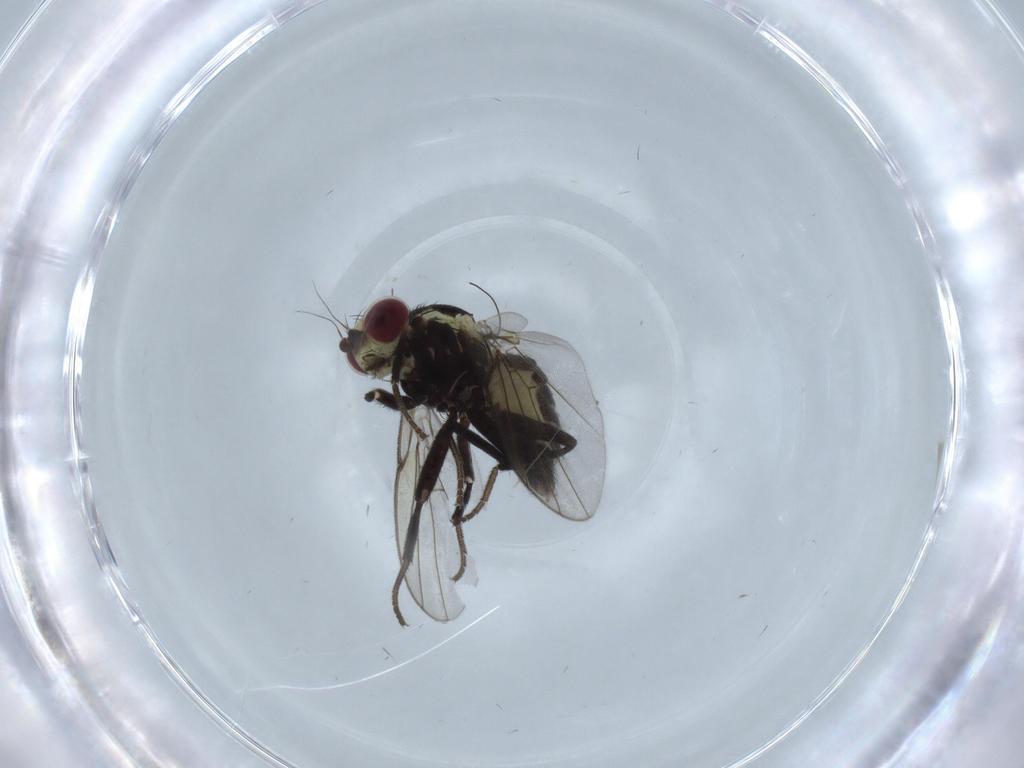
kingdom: Animalia
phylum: Arthropoda
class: Insecta
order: Diptera
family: Agromyzidae
